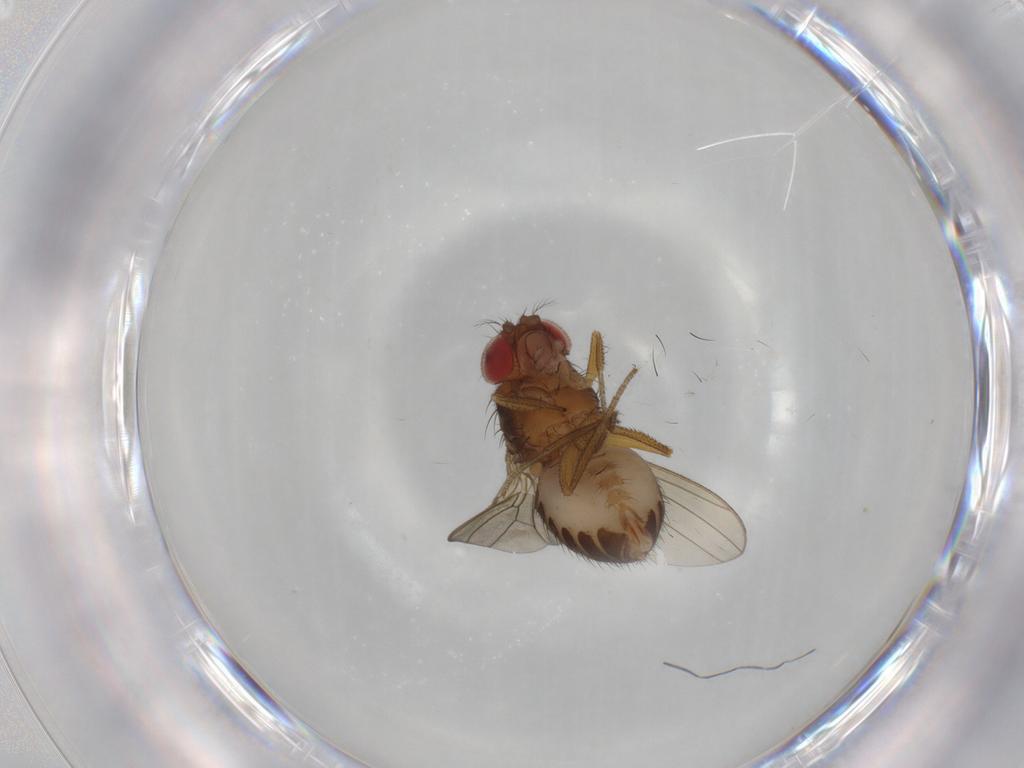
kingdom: Animalia
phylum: Arthropoda
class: Insecta
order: Diptera
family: Drosophilidae
